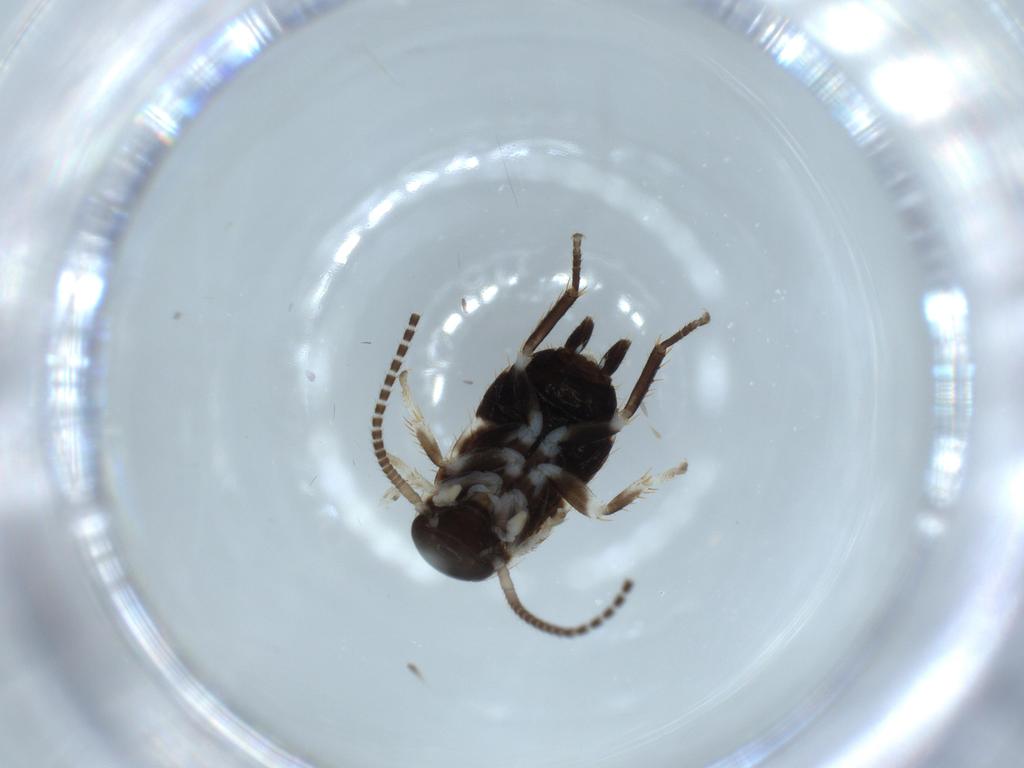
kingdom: Animalia
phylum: Arthropoda
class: Insecta
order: Blattodea
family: Ectobiidae
